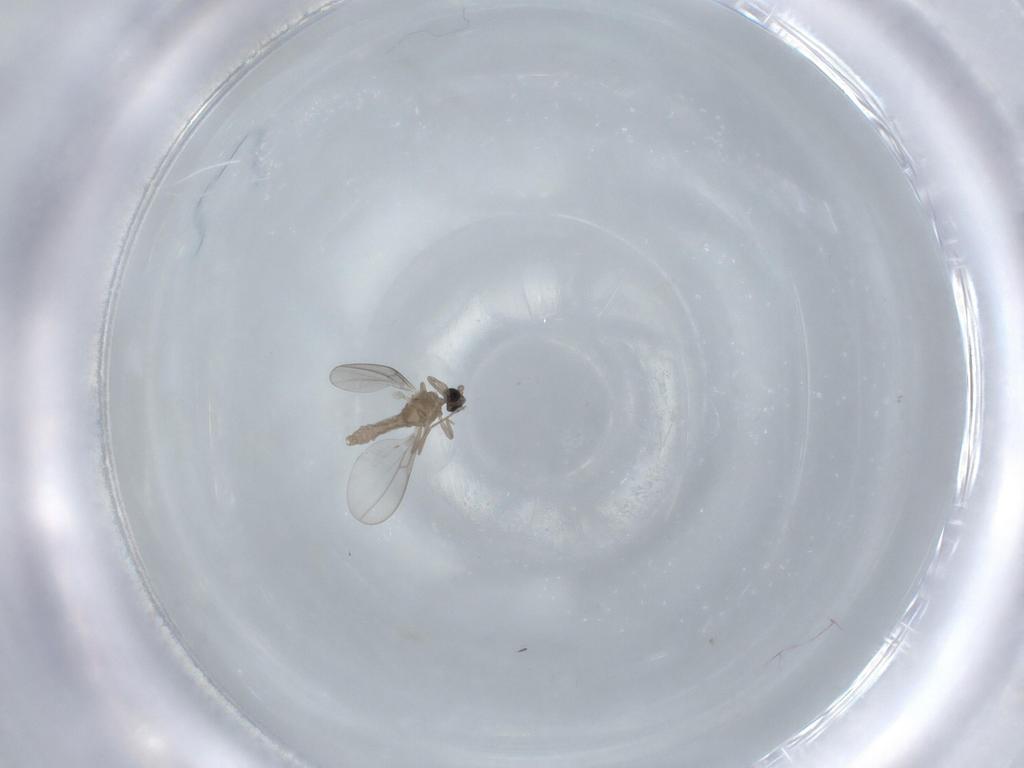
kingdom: Animalia
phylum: Arthropoda
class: Insecta
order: Diptera
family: Cecidomyiidae
